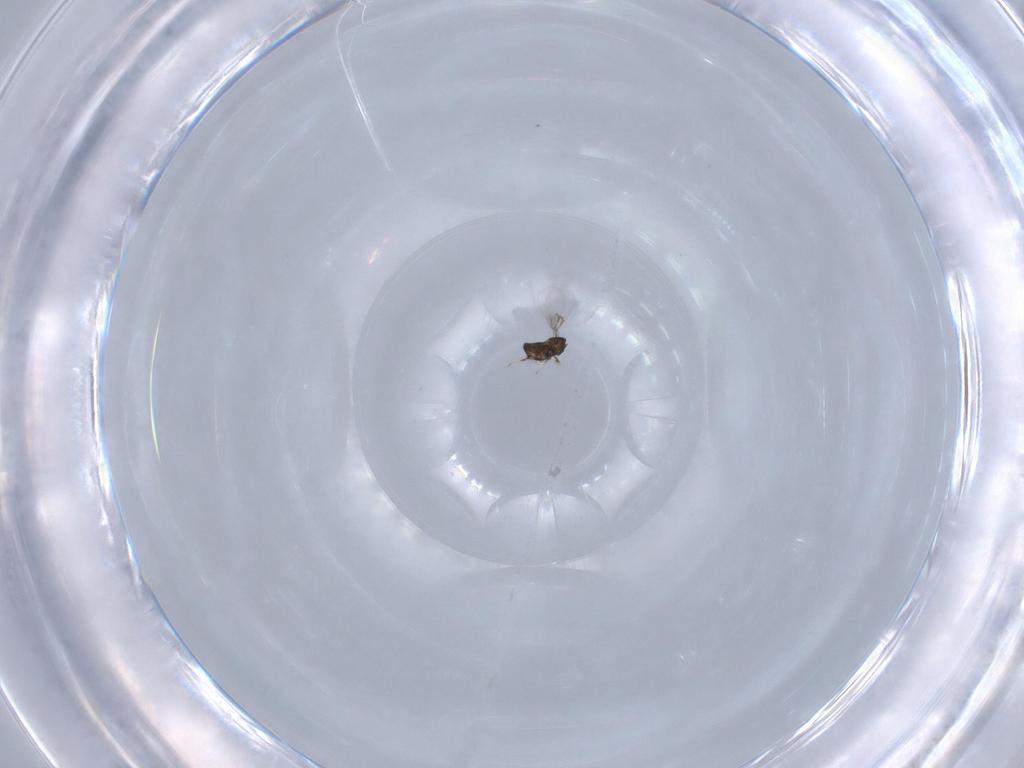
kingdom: Animalia
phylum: Arthropoda
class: Insecta
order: Hymenoptera
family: Trichogrammatidae
